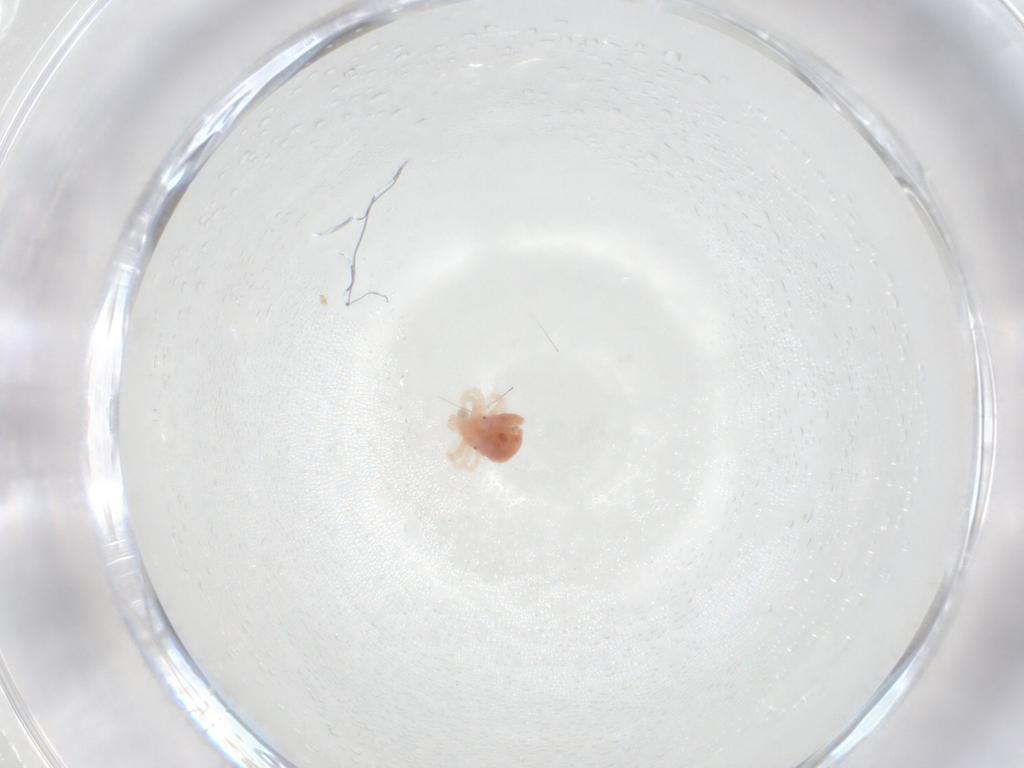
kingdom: Animalia
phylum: Arthropoda
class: Arachnida
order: Trombidiformes
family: Anystidae
